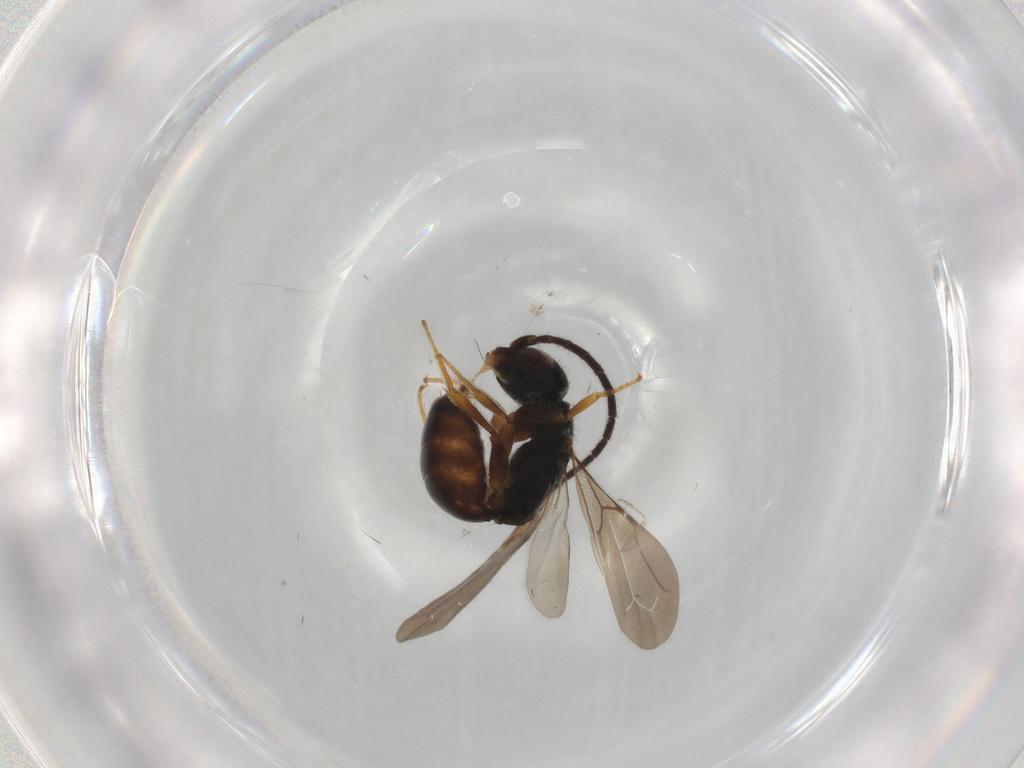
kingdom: Animalia
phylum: Arthropoda
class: Insecta
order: Hymenoptera
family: Bethylidae
